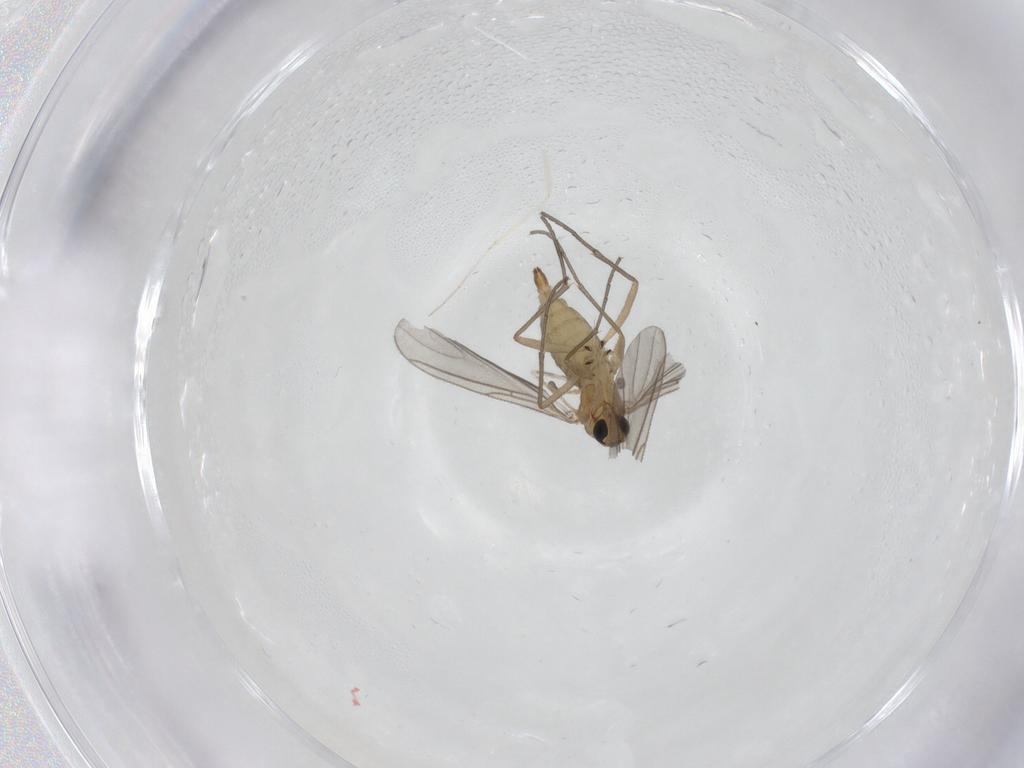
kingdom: Animalia
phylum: Arthropoda
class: Insecta
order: Diptera
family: Sciaridae
